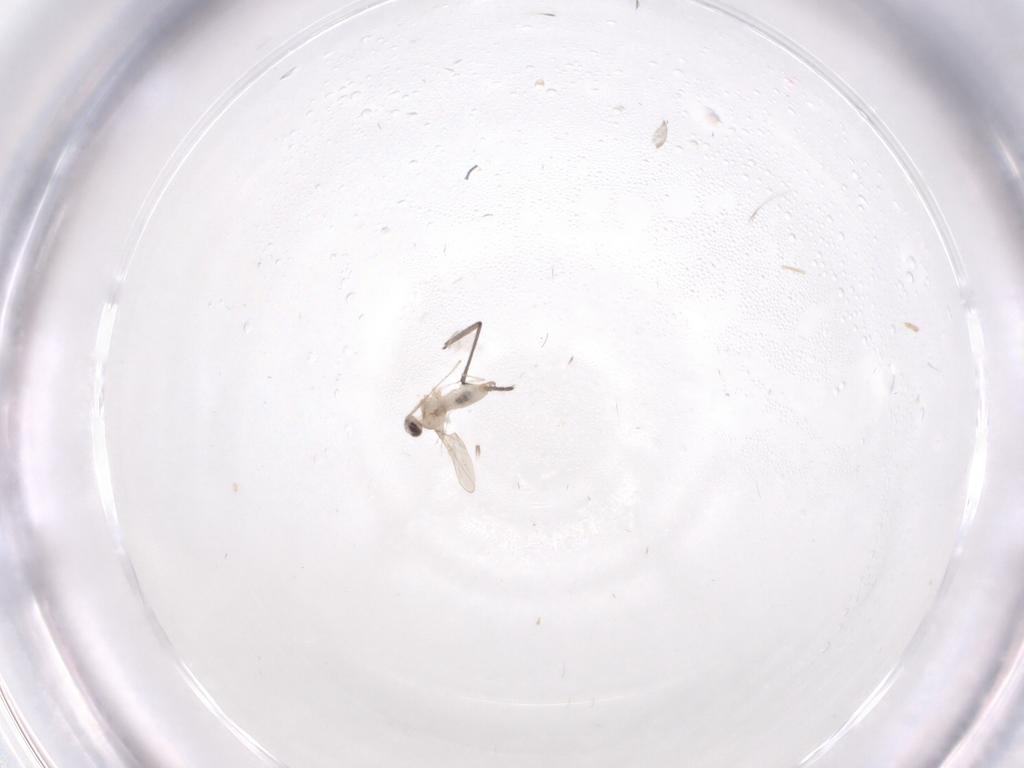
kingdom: Animalia
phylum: Arthropoda
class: Insecta
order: Diptera
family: Cecidomyiidae
